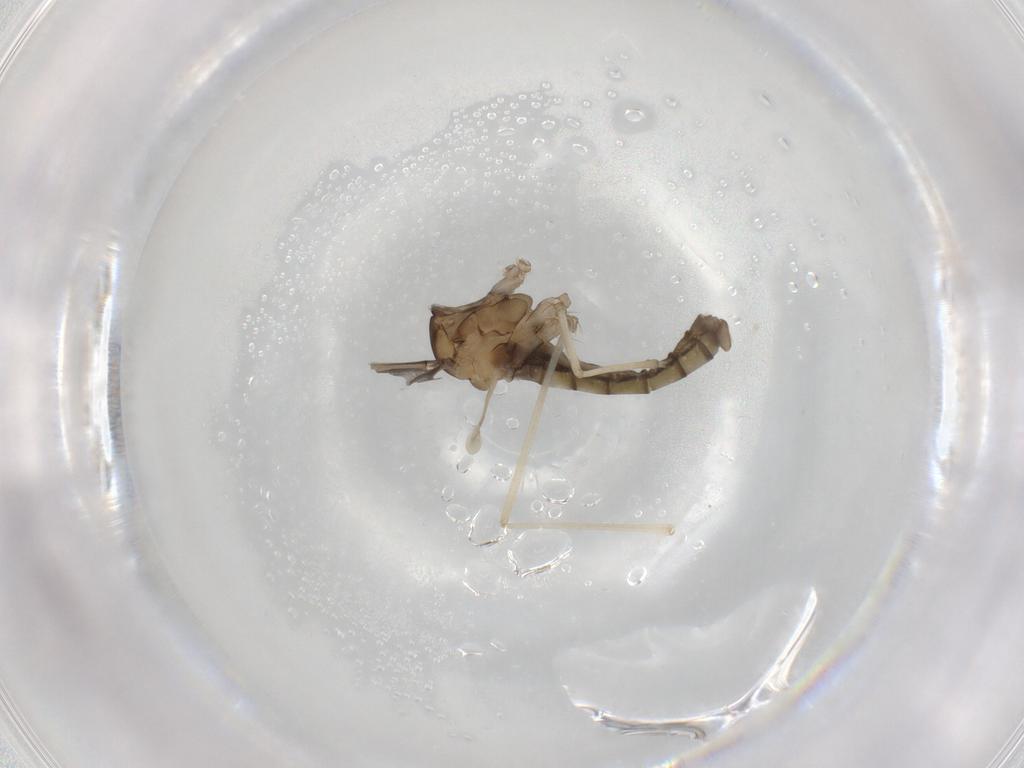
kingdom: Animalia
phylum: Arthropoda
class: Insecta
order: Diptera
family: Cecidomyiidae
